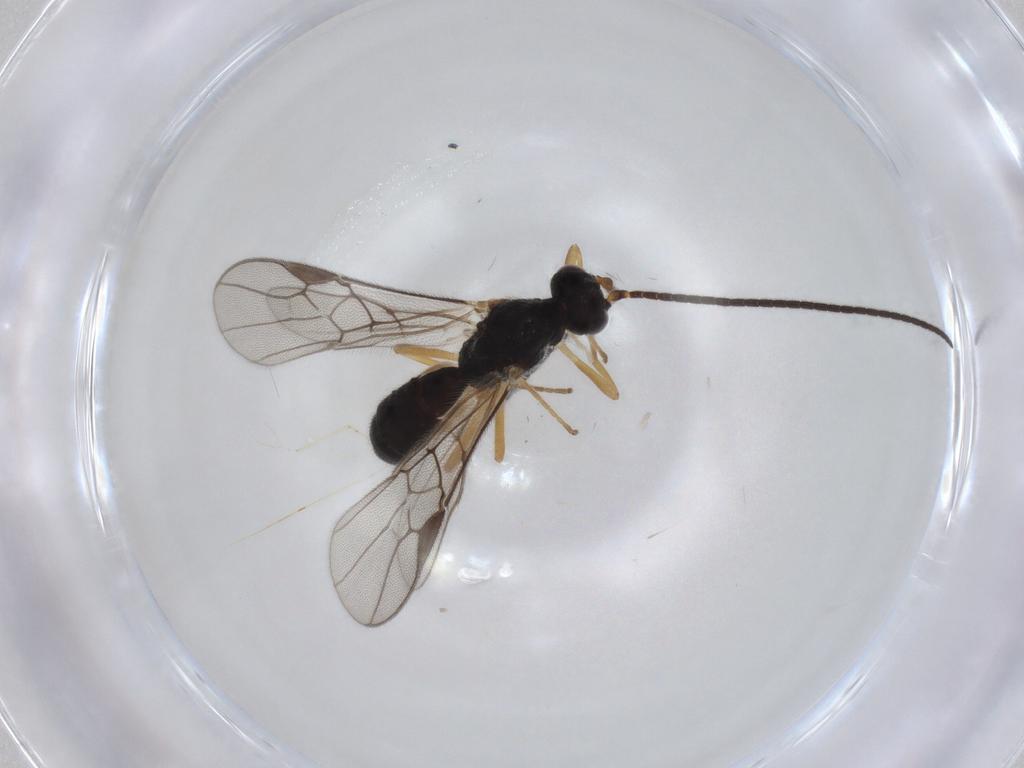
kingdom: Animalia
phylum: Arthropoda
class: Insecta
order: Hymenoptera
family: Braconidae
